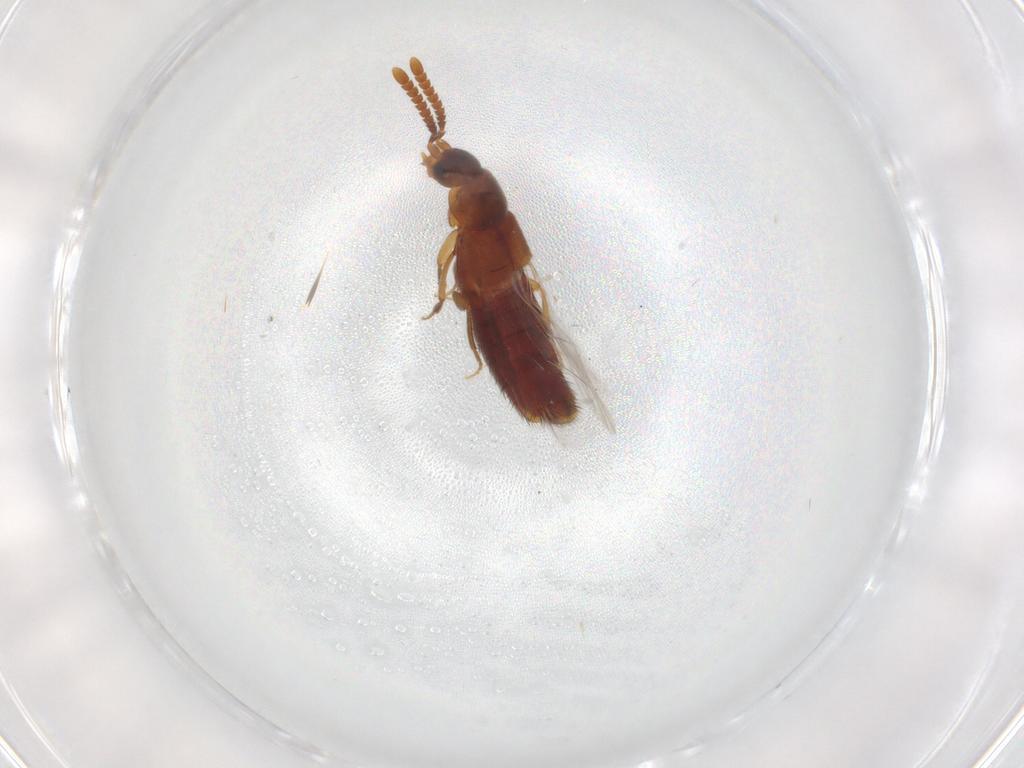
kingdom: Animalia
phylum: Arthropoda
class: Insecta
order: Coleoptera
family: Staphylinidae
